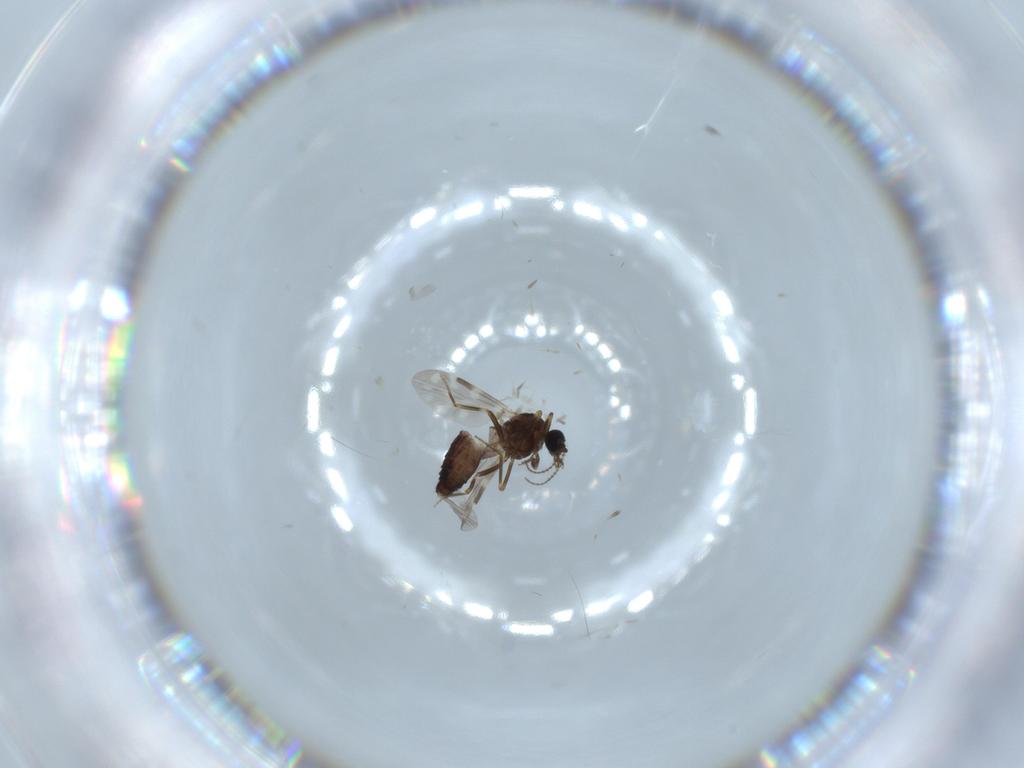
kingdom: Animalia
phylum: Arthropoda
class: Insecta
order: Diptera
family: Ceratopogonidae
